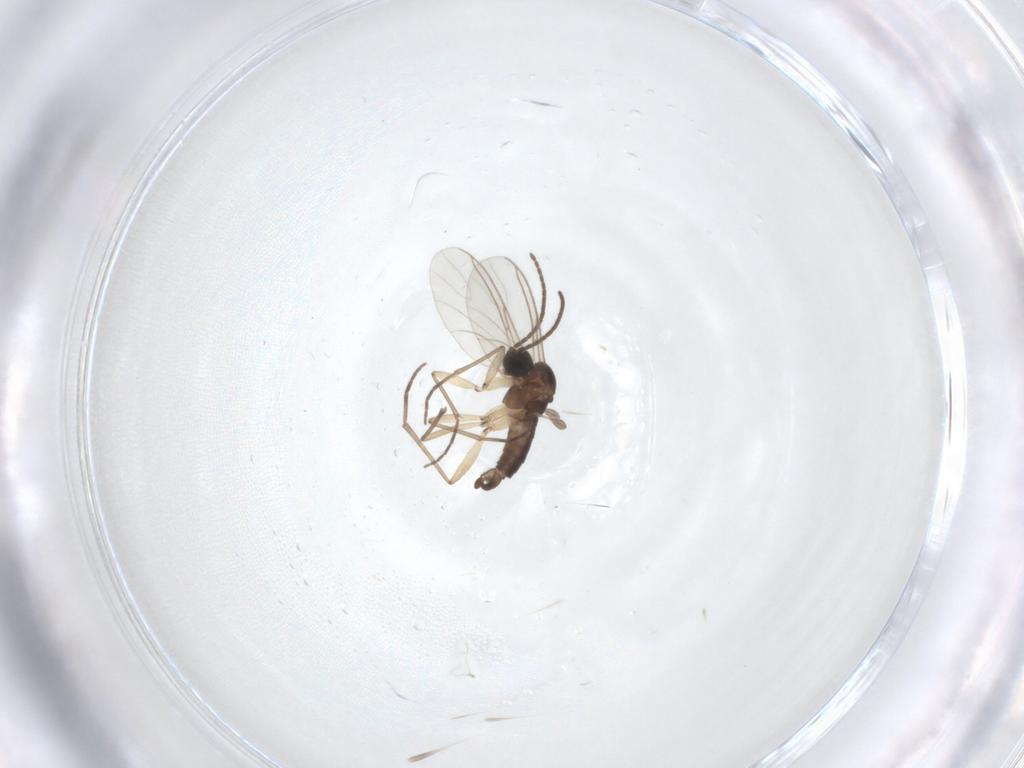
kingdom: Animalia
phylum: Arthropoda
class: Insecta
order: Diptera
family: Sciaridae
